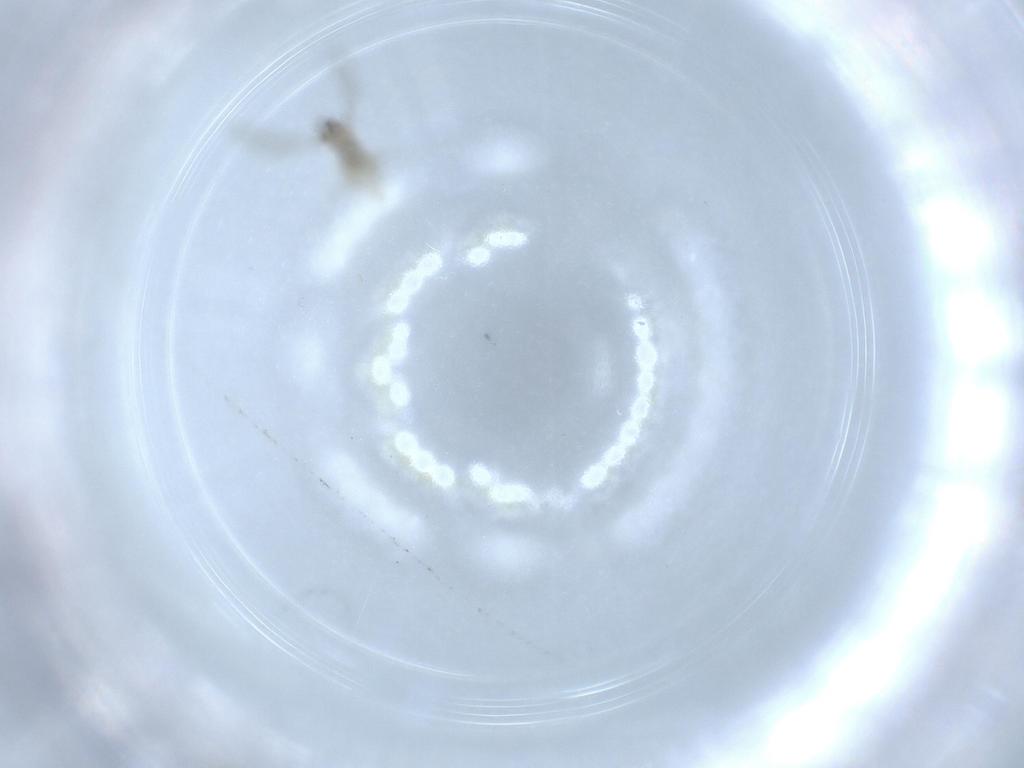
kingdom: Animalia
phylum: Arthropoda
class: Insecta
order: Diptera
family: Cecidomyiidae
